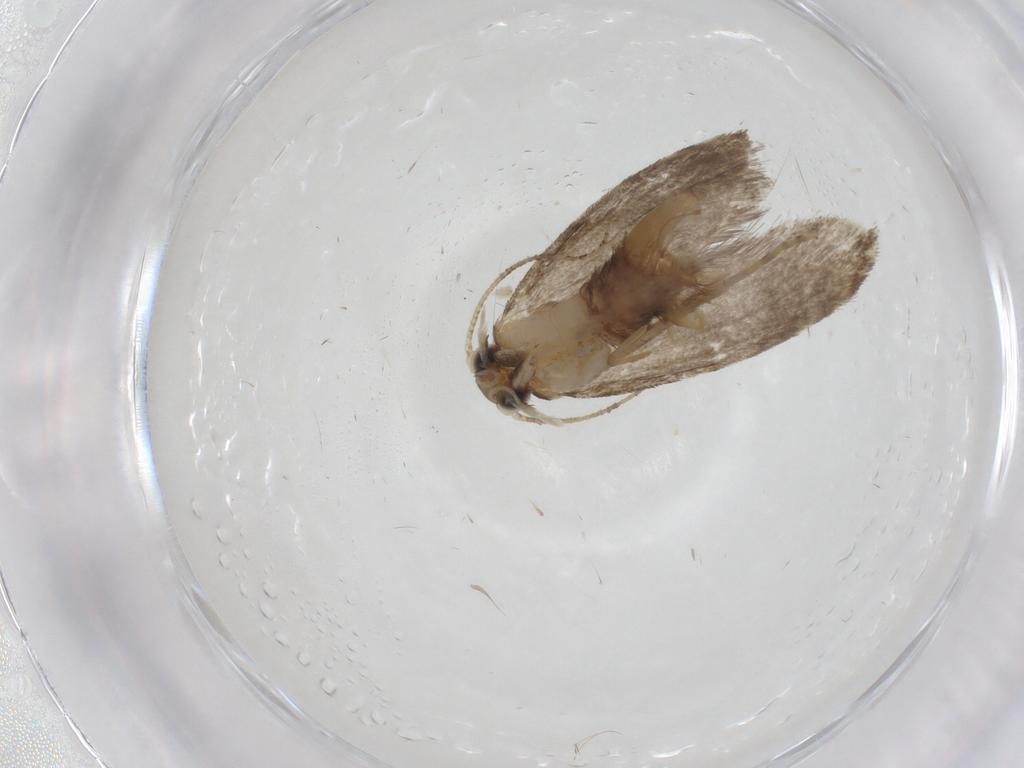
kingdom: Animalia
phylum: Arthropoda
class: Insecta
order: Lepidoptera
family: Tineidae
